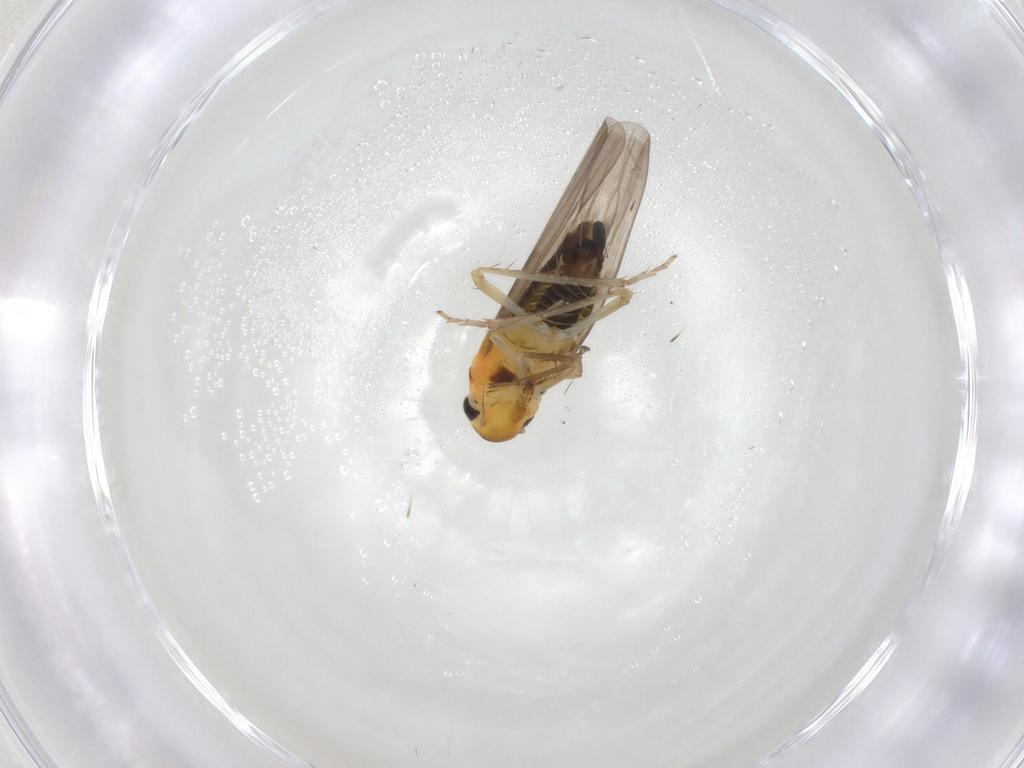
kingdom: Animalia
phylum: Arthropoda
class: Insecta
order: Hemiptera
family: Cicadellidae
